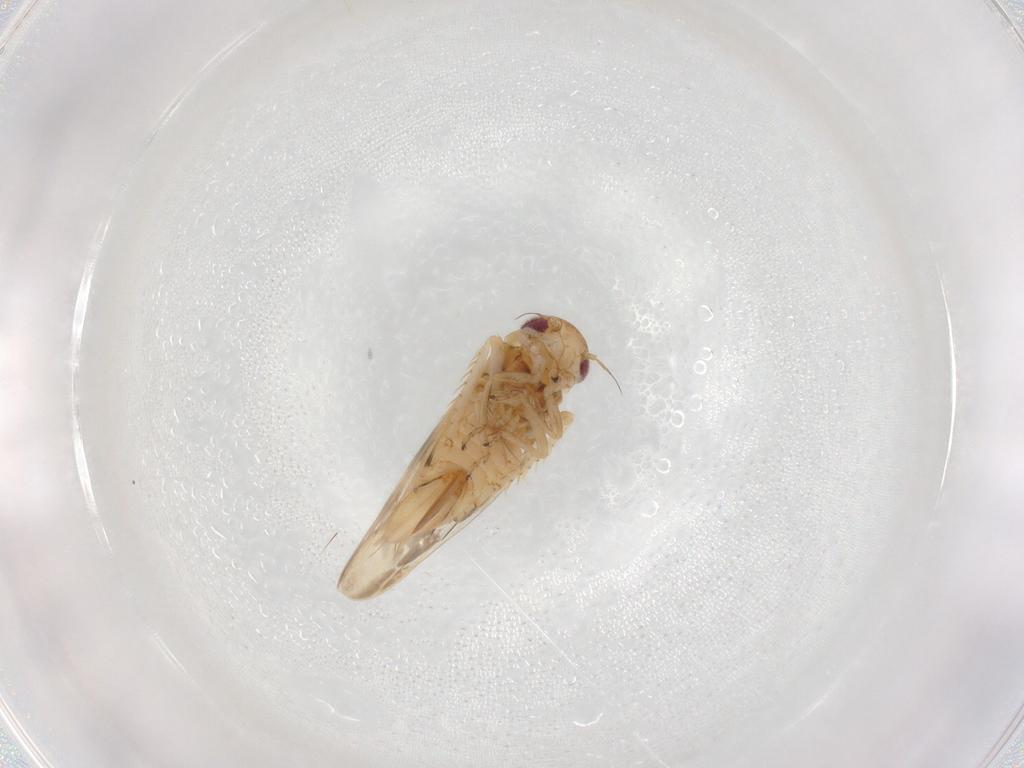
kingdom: Animalia
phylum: Arthropoda
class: Insecta
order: Hemiptera
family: Cicadellidae
